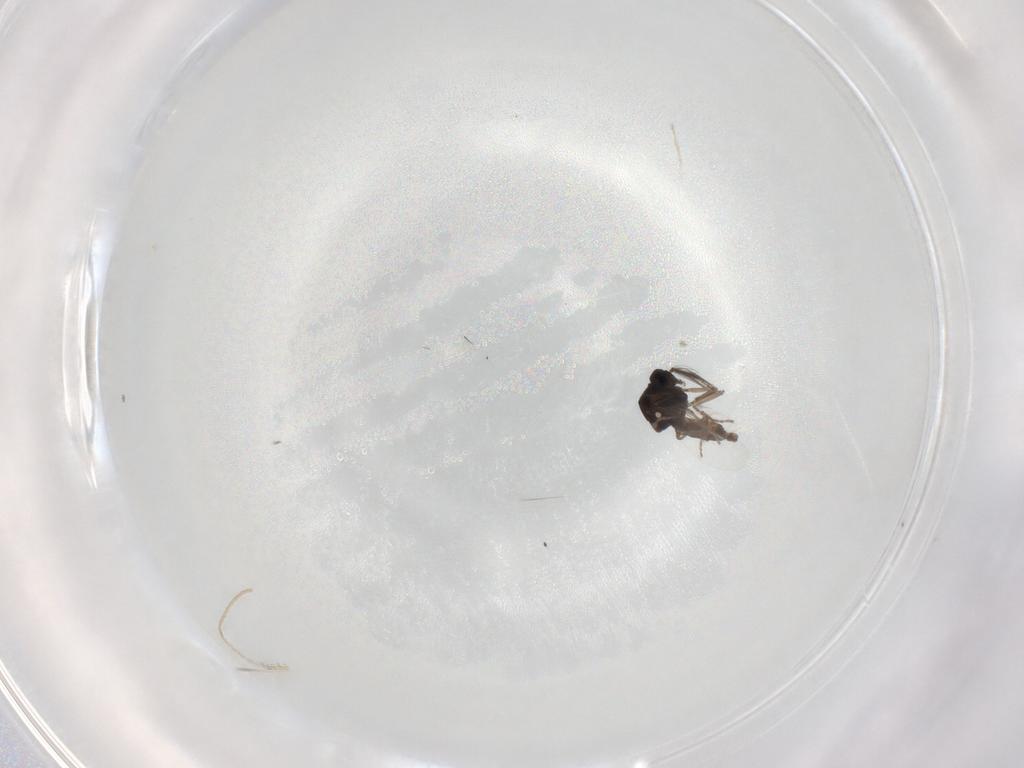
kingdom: Animalia
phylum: Arthropoda
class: Insecta
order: Diptera
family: Ceratopogonidae
